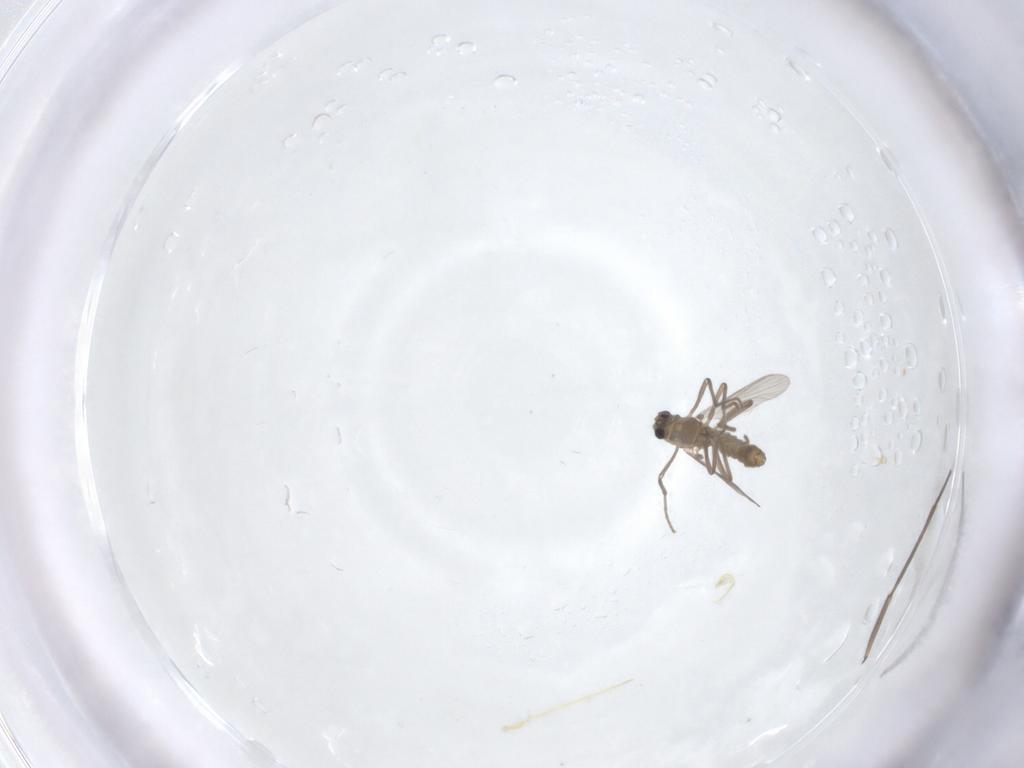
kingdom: Animalia
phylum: Arthropoda
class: Insecta
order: Diptera
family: Sciaridae
